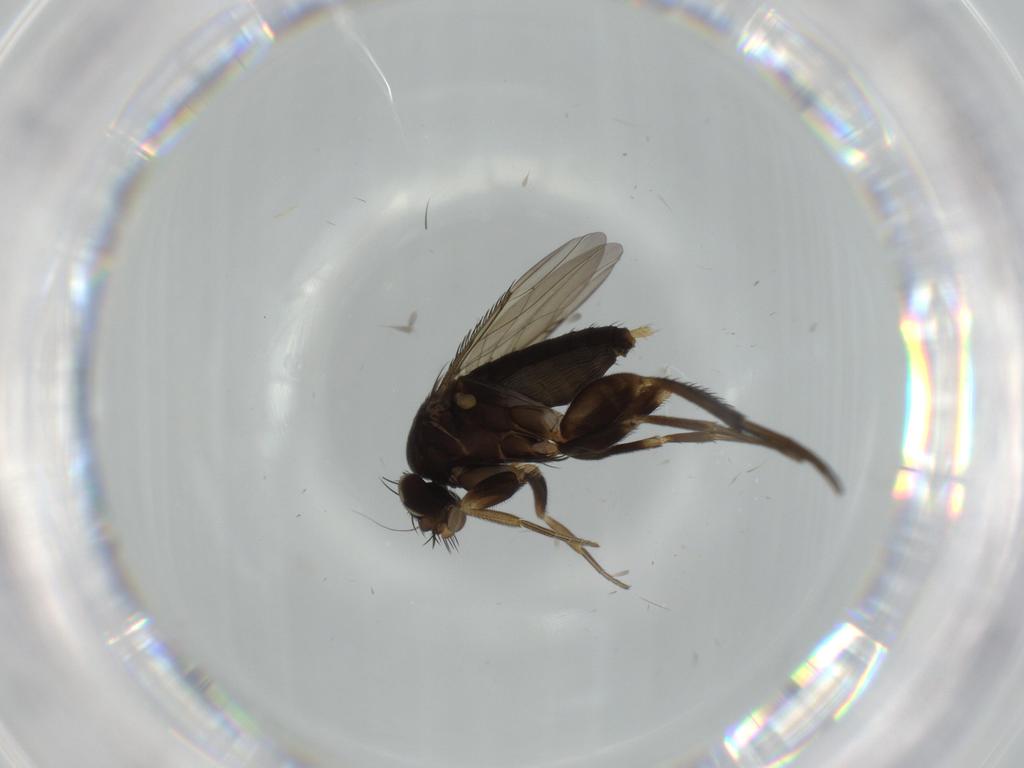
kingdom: Animalia
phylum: Arthropoda
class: Insecta
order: Diptera
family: Phoridae
